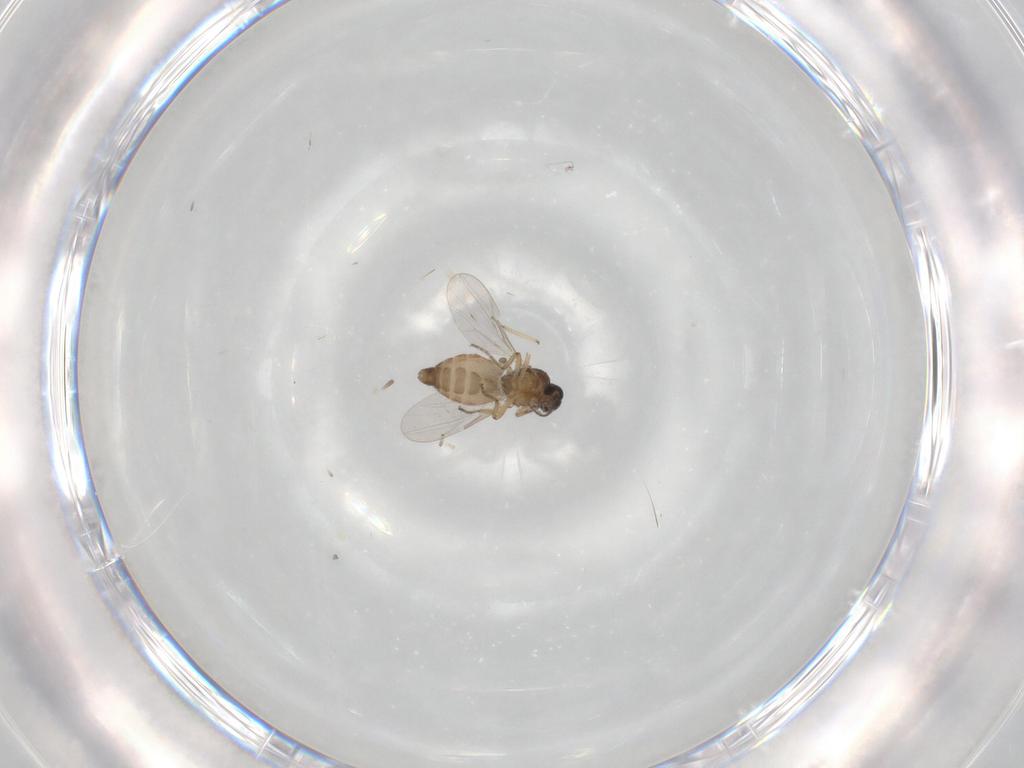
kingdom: Animalia
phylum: Arthropoda
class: Insecta
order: Diptera
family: Ceratopogonidae
